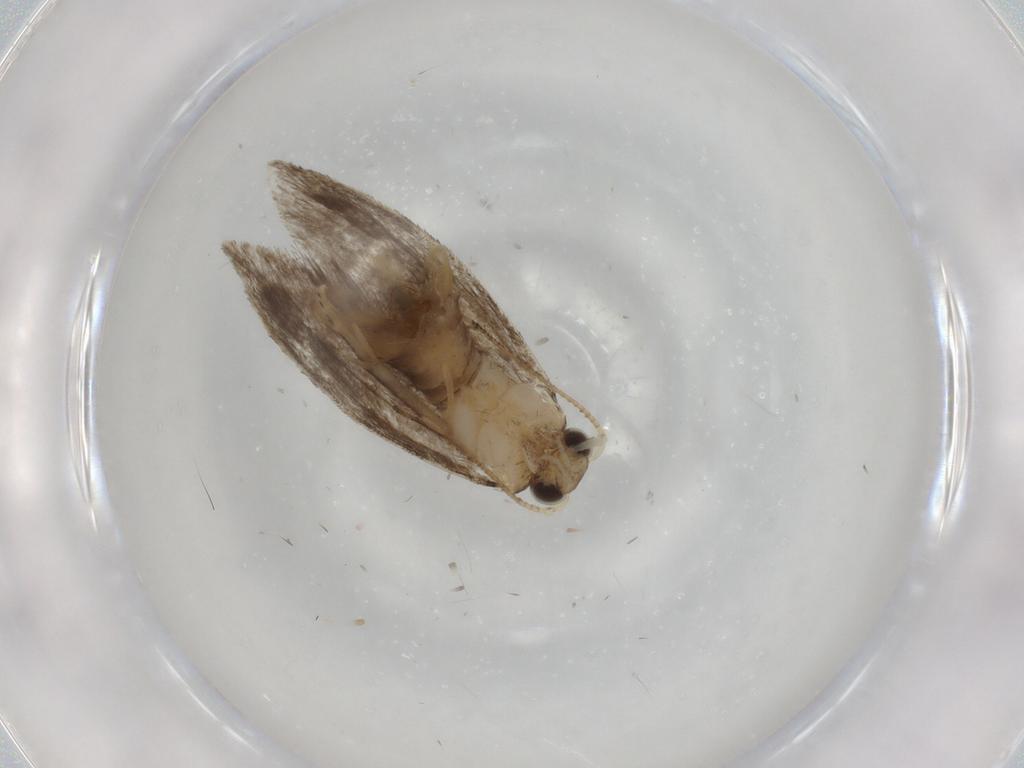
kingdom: Animalia
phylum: Arthropoda
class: Insecta
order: Lepidoptera
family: Tineidae
